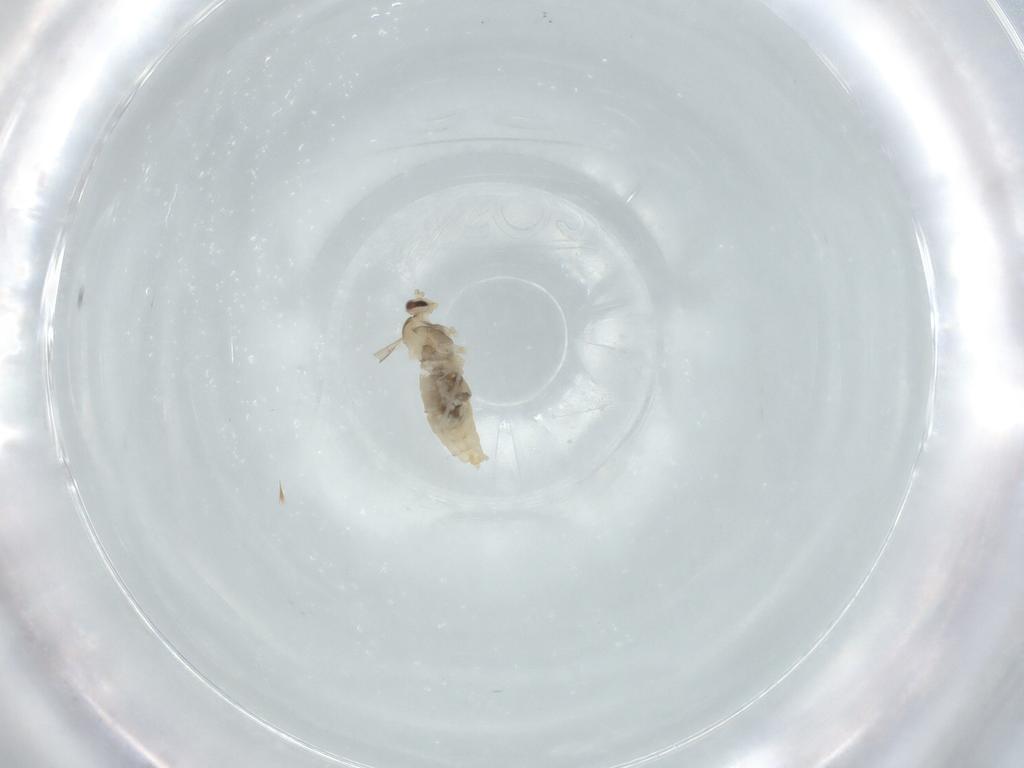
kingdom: Animalia
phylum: Arthropoda
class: Insecta
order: Diptera
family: Cecidomyiidae
